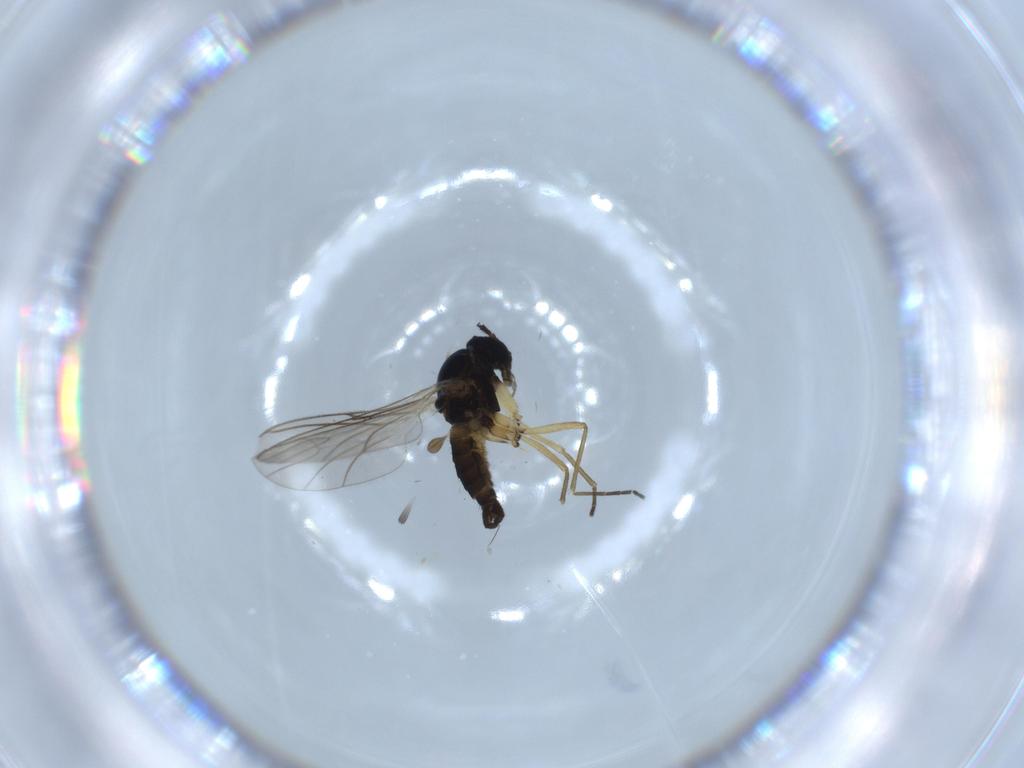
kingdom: Animalia
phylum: Arthropoda
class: Insecta
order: Diptera
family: Sciaridae
